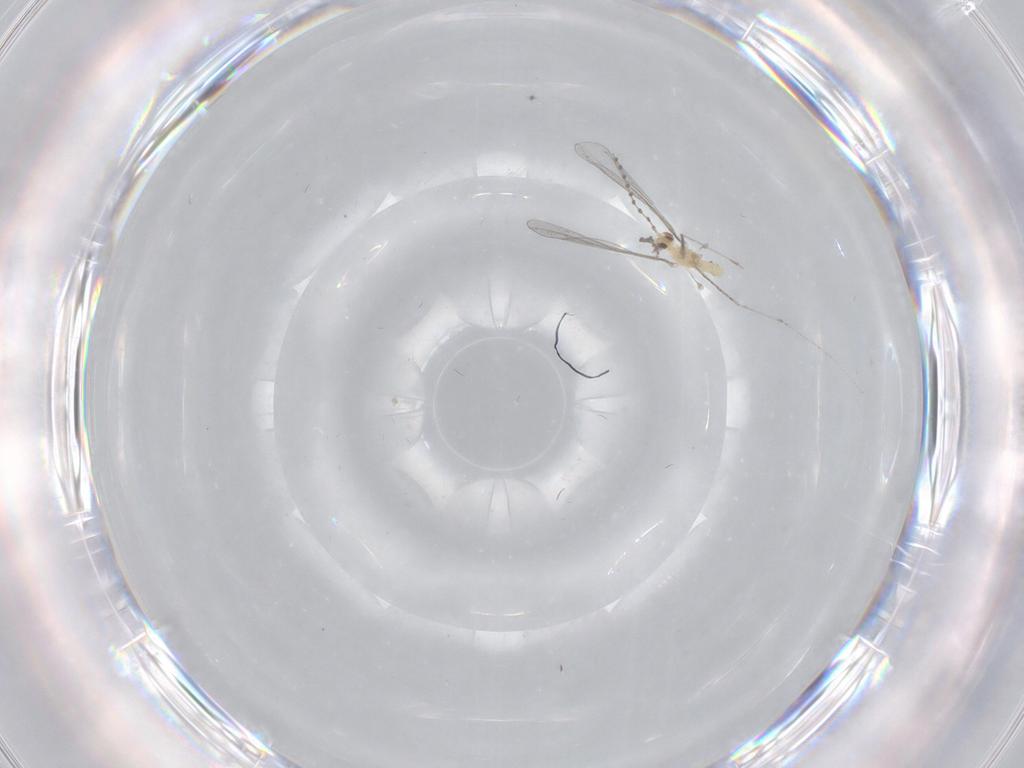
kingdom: Animalia
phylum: Arthropoda
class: Insecta
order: Diptera
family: Cecidomyiidae
